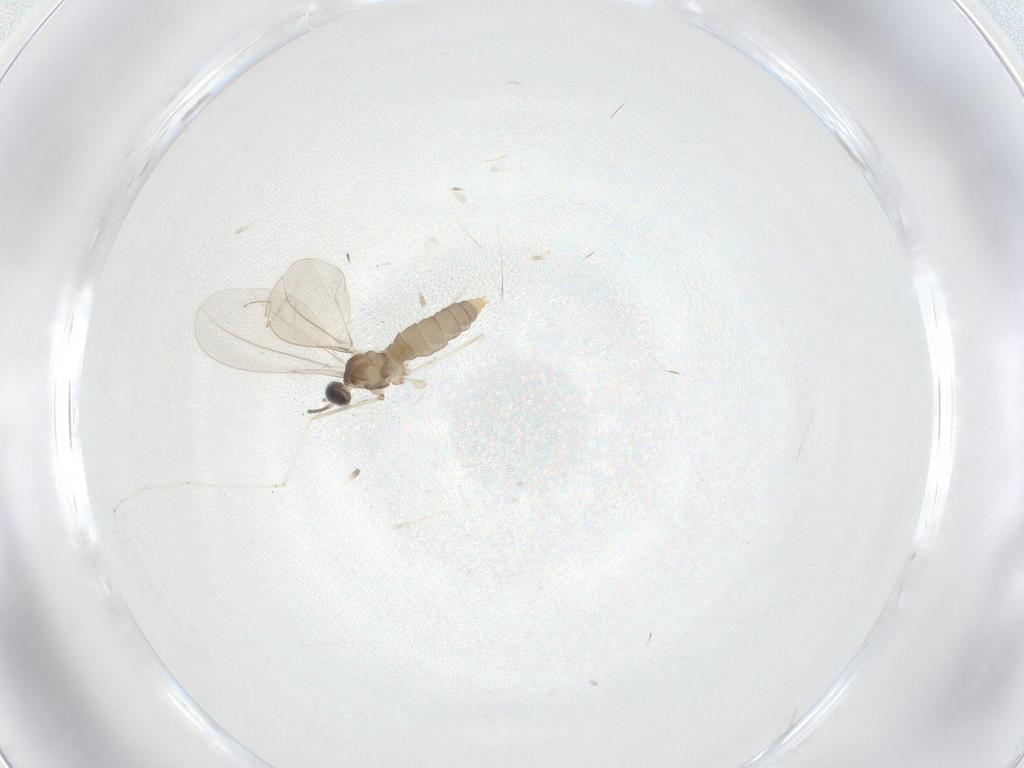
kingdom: Animalia
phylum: Arthropoda
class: Insecta
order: Diptera
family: Cecidomyiidae
